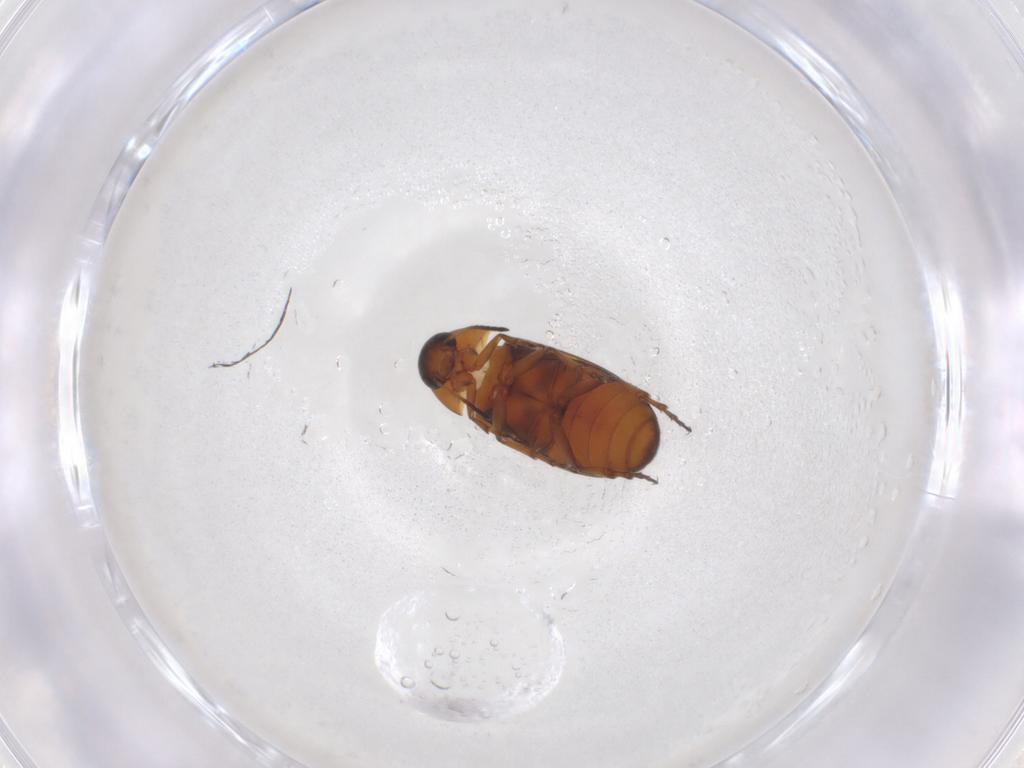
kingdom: Animalia
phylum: Arthropoda
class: Insecta
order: Coleoptera
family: Scraptiidae
